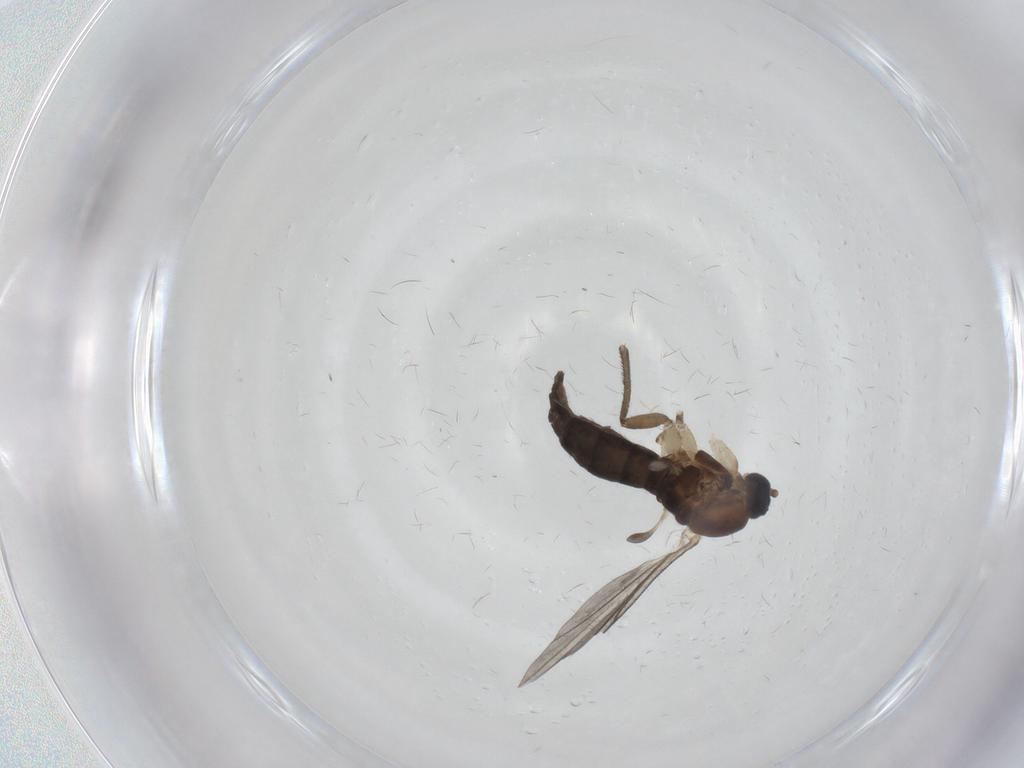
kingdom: Animalia
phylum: Arthropoda
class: Insecta
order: Diptera
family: Sciaridae
